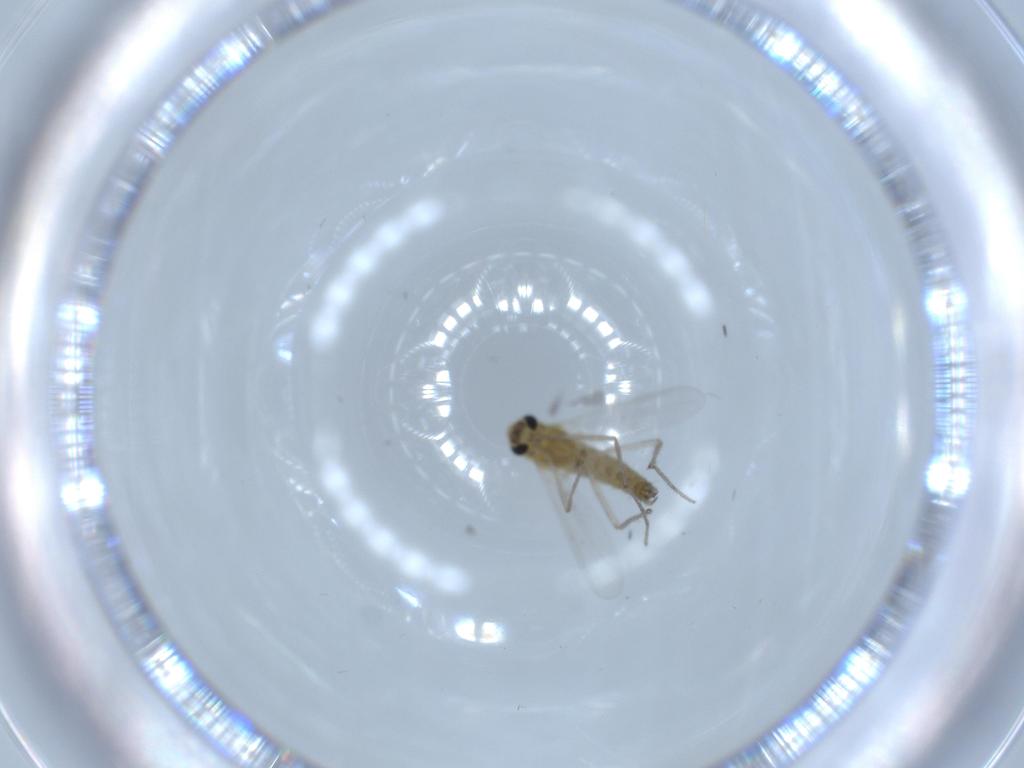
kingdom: Animalia
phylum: Arthropoda
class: Insecta
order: Diptera
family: Chironomidae
